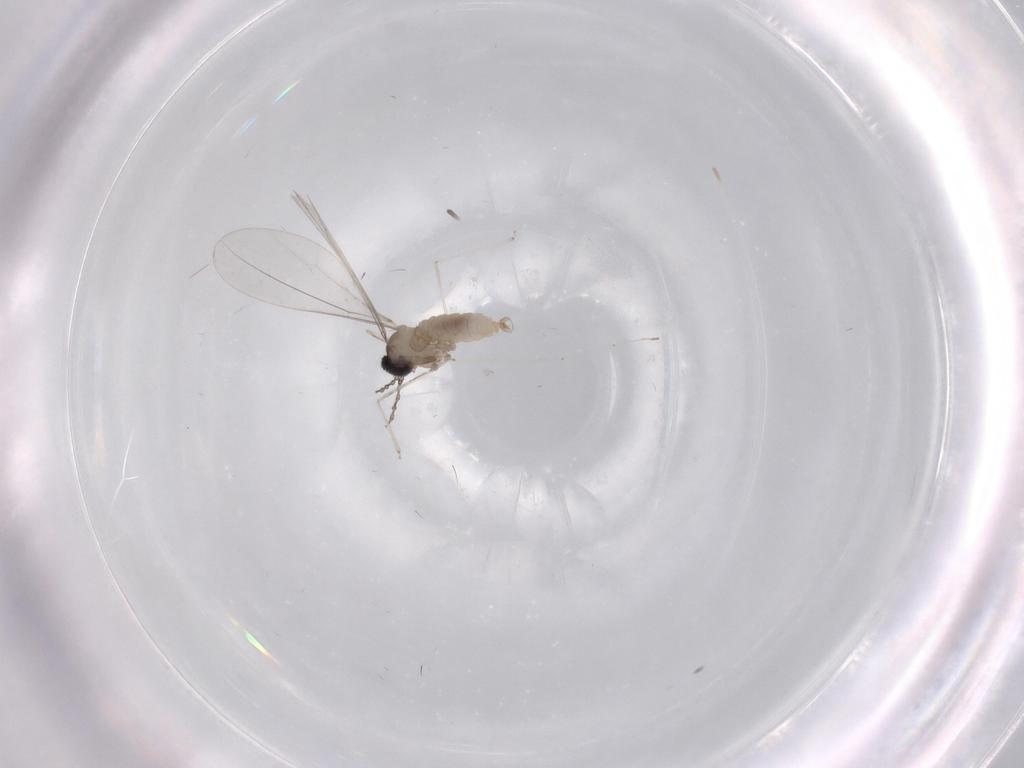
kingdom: Animalia
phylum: Arthropoda
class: Insecta
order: Diptera
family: Cecidomyiidae
